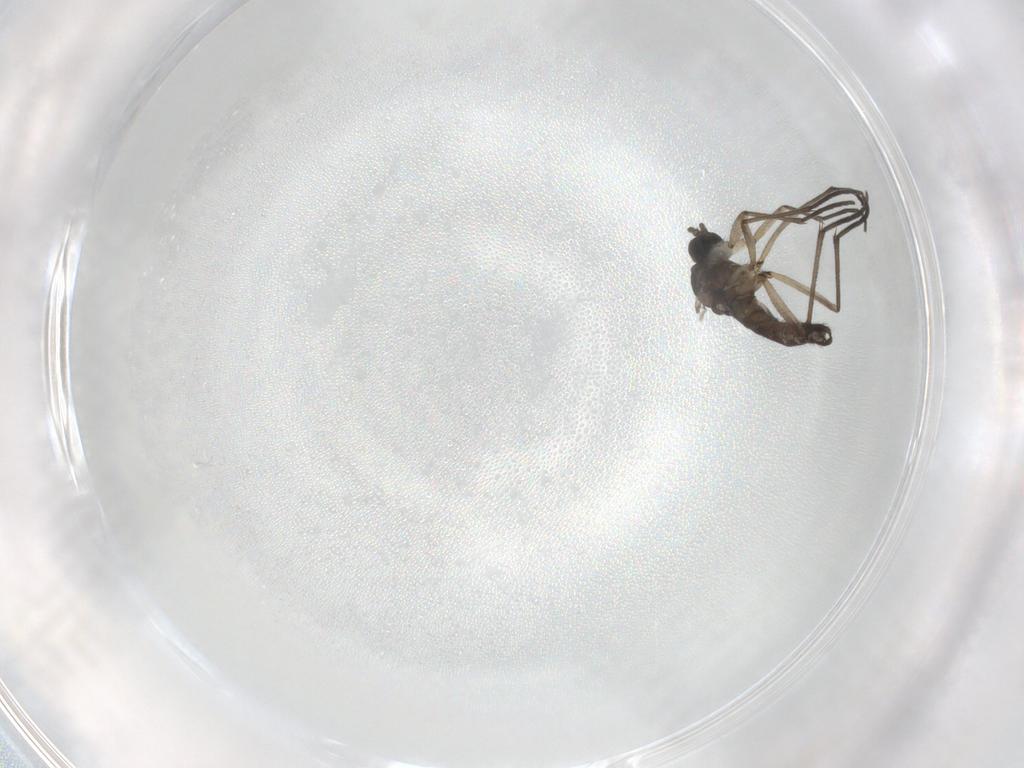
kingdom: Animalia
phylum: Arthropoda
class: Insecta
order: Diptera
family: Sciaridae
